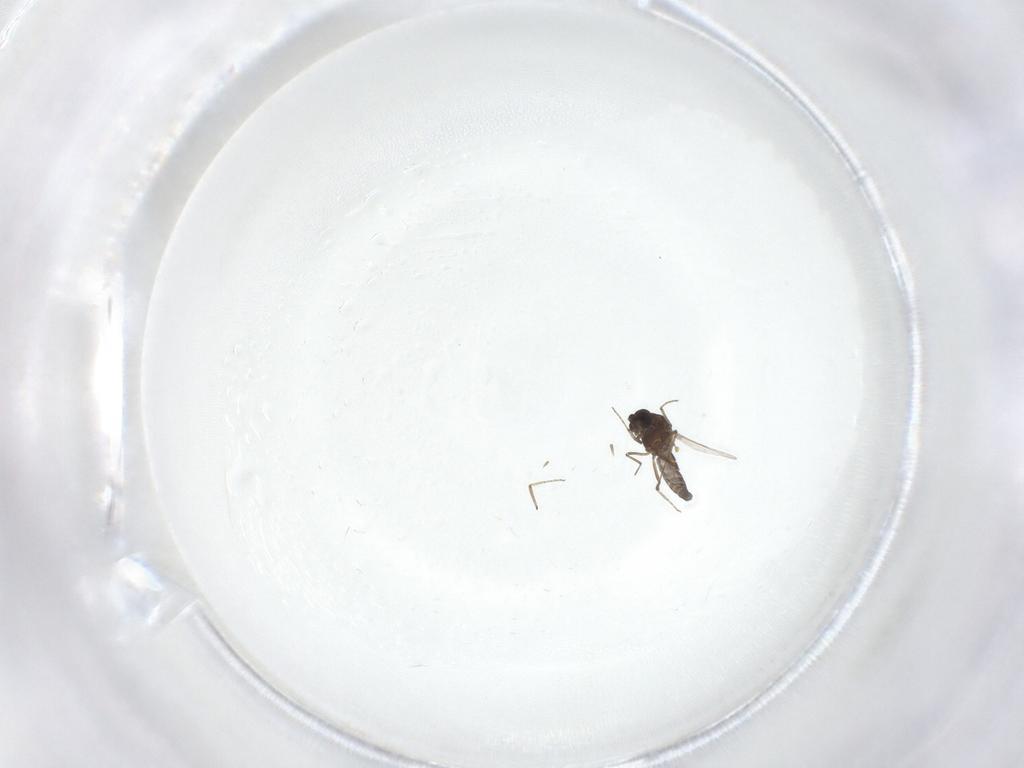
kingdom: Animalia
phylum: Arthropoda
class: Insecta
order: Diptera
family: Ceratopogonidae
